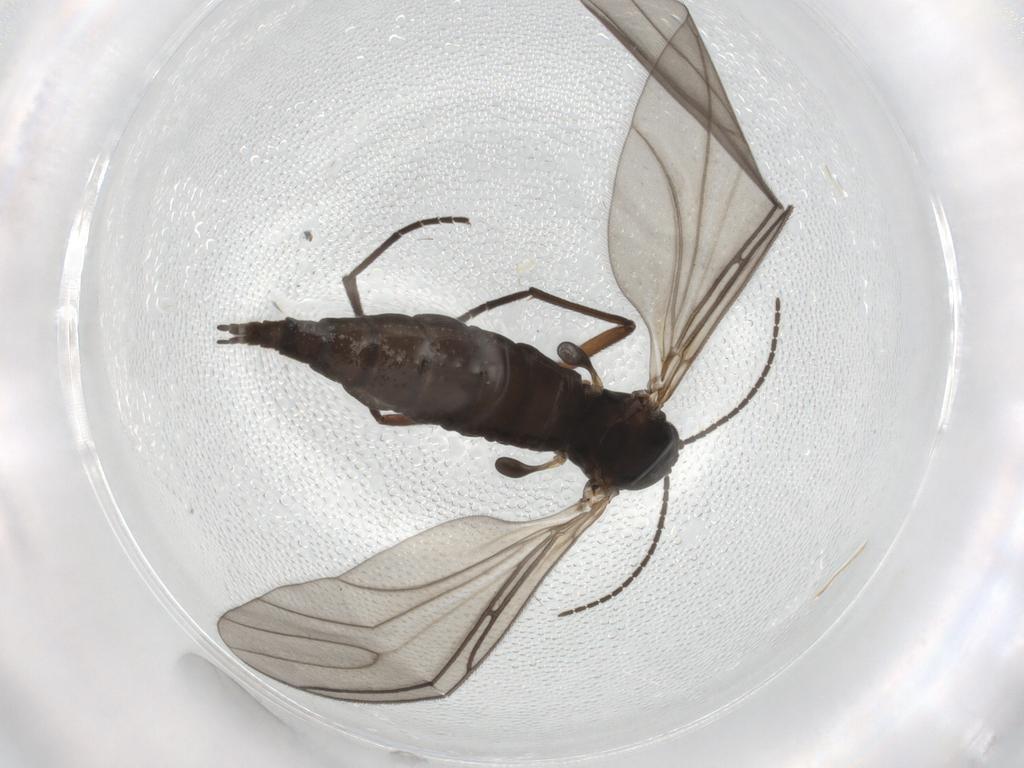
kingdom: Animalia
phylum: Arthropoda
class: Insecta
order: Diptera
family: Sciaridae
